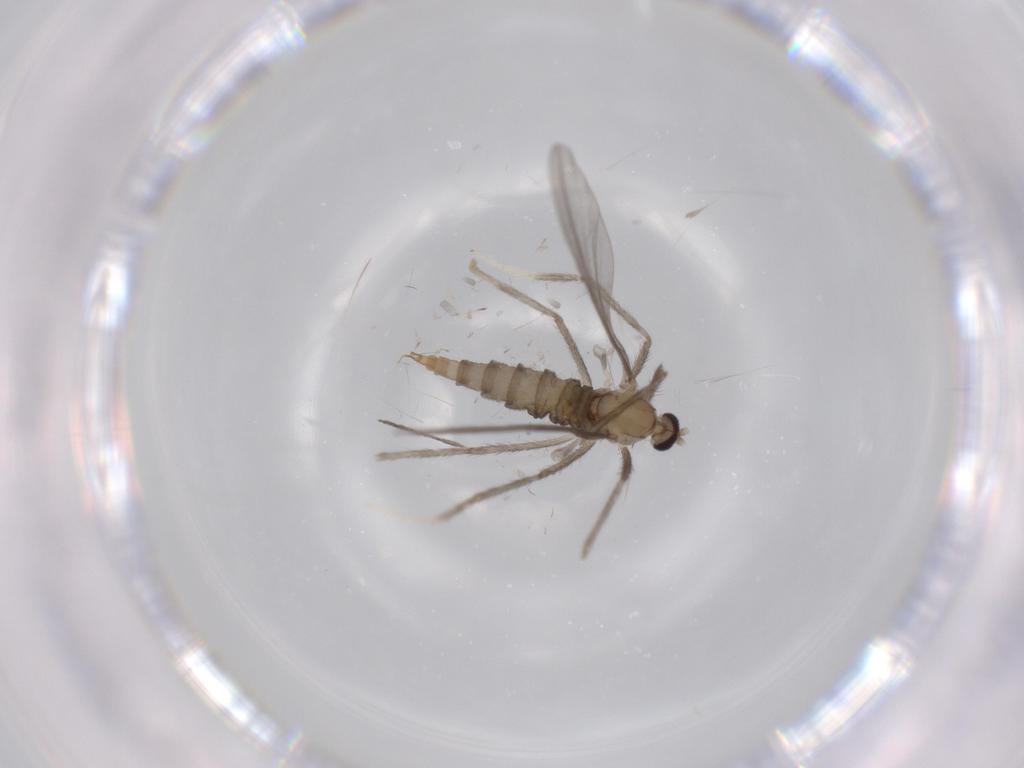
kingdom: Animalia
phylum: Arthropoda
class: Insecta
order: Diptera
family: Cecidomyiidae
